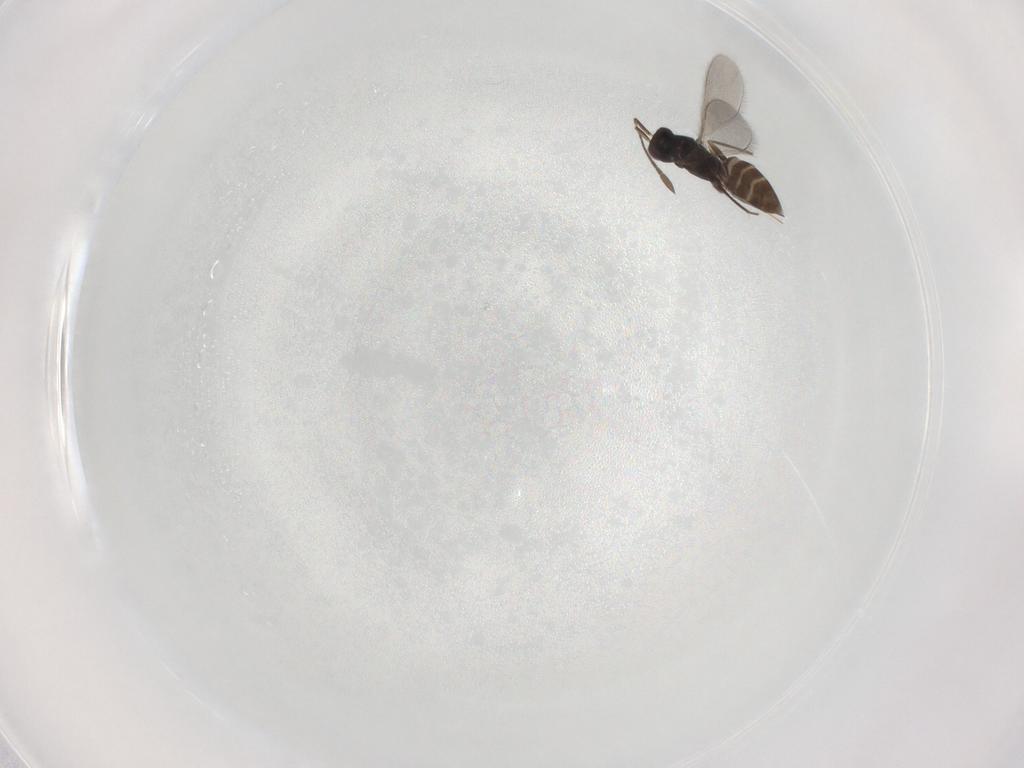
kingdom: Animalia
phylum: Arthropoda
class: Insecta
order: Hymenoptera
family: Mymaridae
